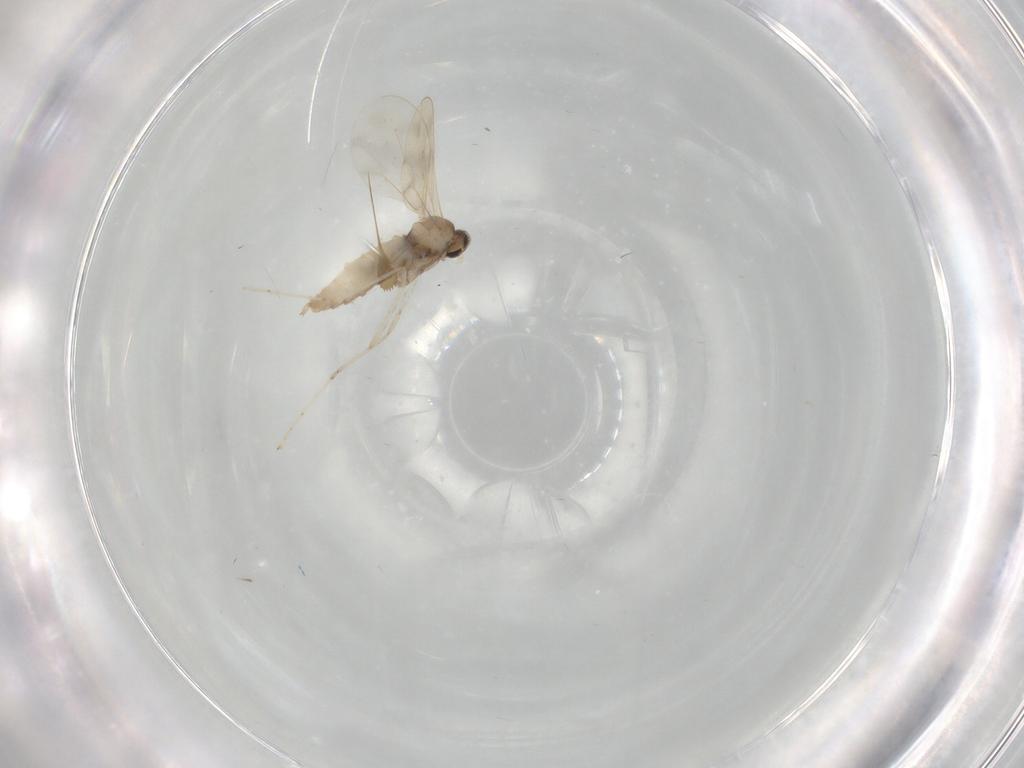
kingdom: Animalia
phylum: Arthropoda
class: Insecta
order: Diptera
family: Cecidomyiidae
